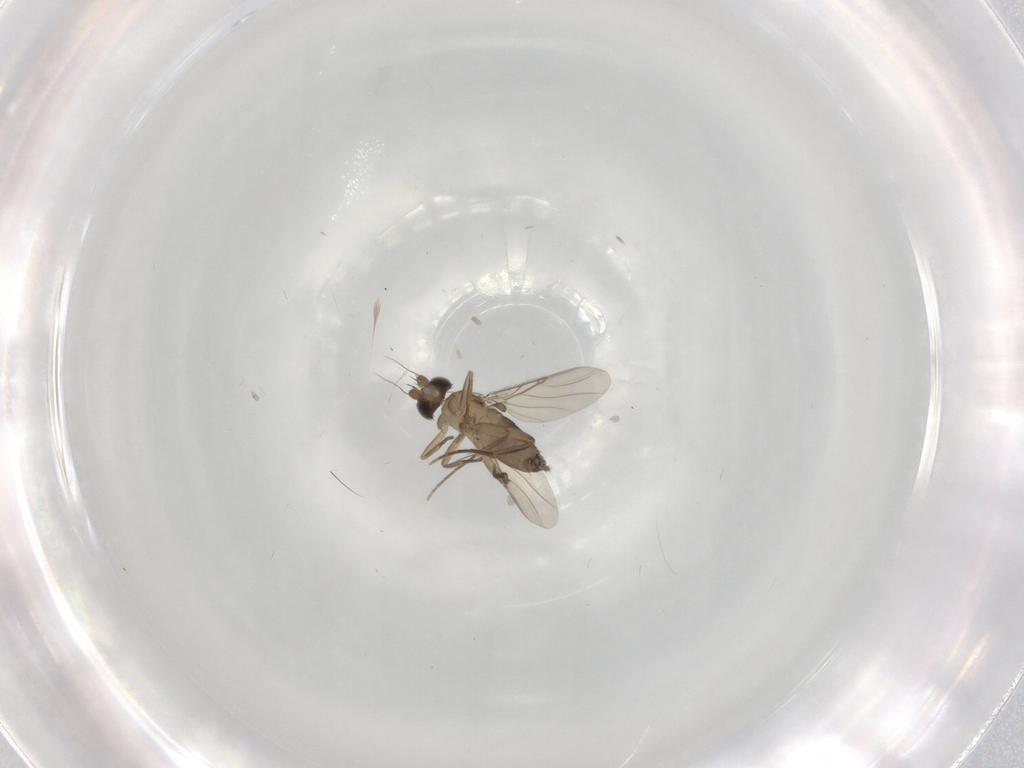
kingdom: Animalia
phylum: Arthropoda
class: Insecta
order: Diptera
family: Phoridae
